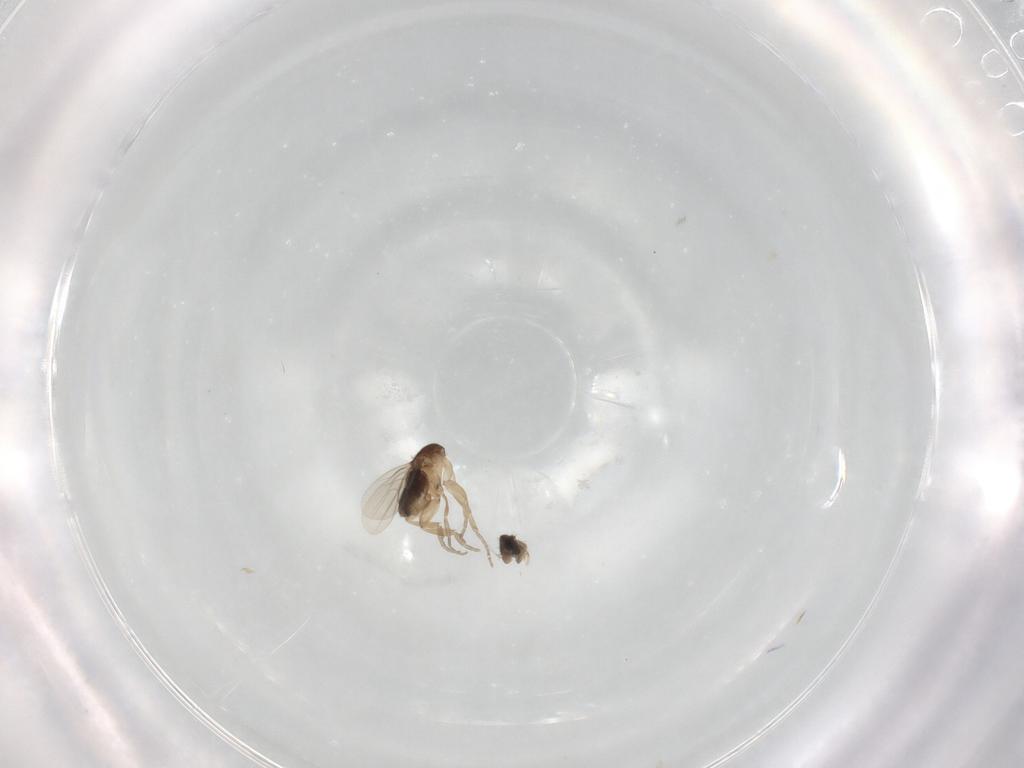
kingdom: Animalia
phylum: Arthropoda
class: Insecta
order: Diptera
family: Phoridae
